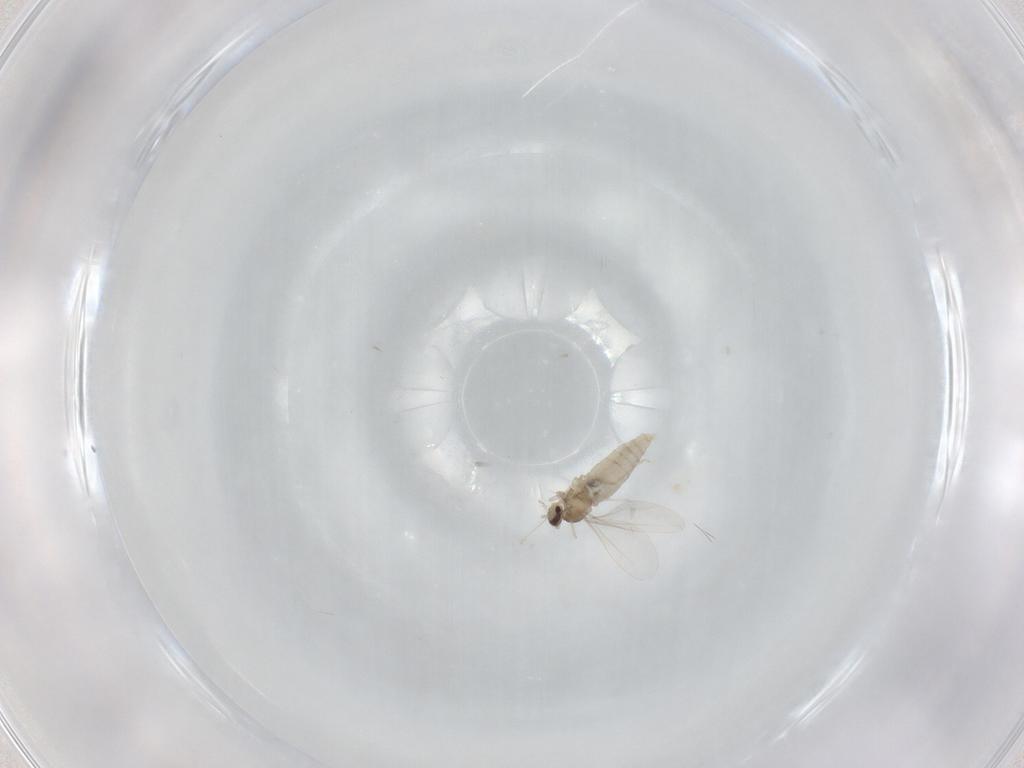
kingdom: Animalia
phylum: Arthropoda
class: Insecta
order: Diptera
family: Cecidomyiidae
